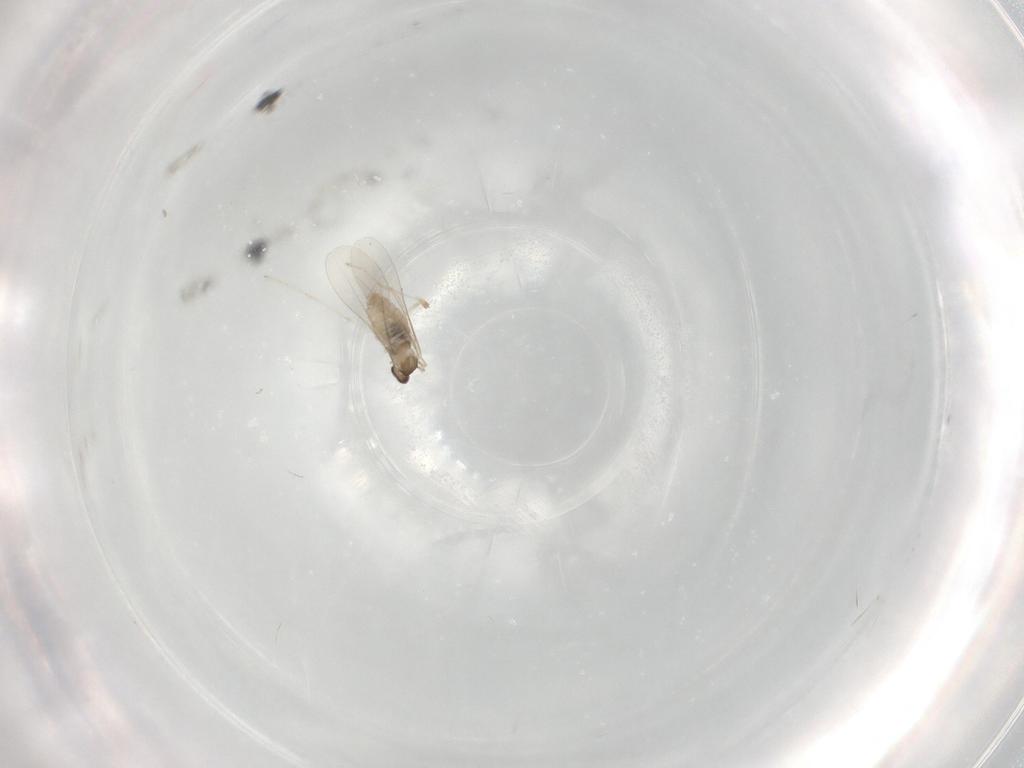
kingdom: Animalia
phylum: Arthropoda
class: Insecta
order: Diptera
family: Cecidomyiidae
